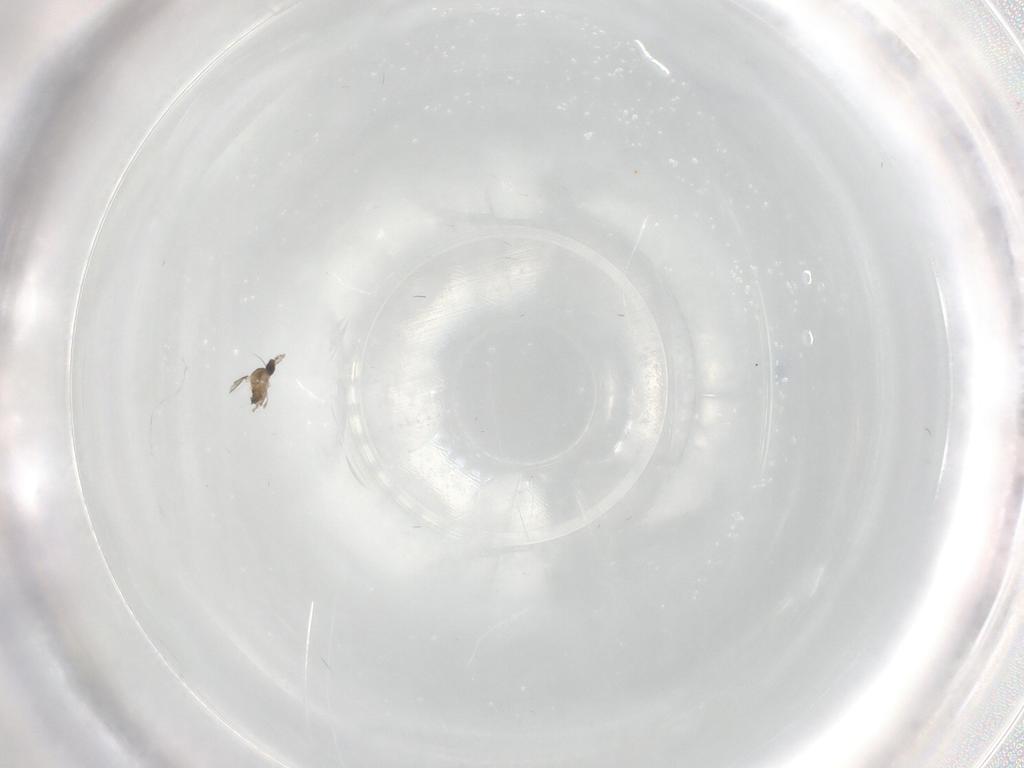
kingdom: Animalia
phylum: Arthropoda
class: Insecta
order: Diptera
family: Cecidomyiidae
